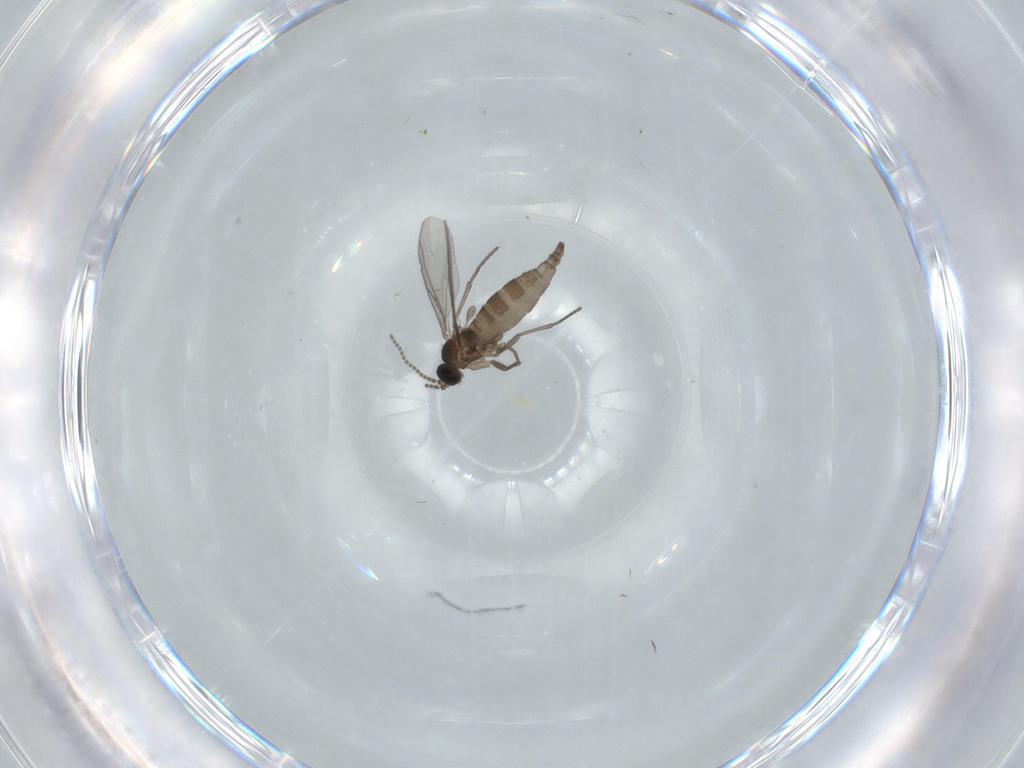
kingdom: Animalia
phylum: Arthropoda
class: Insecta
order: Diptera
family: Tabanidae
